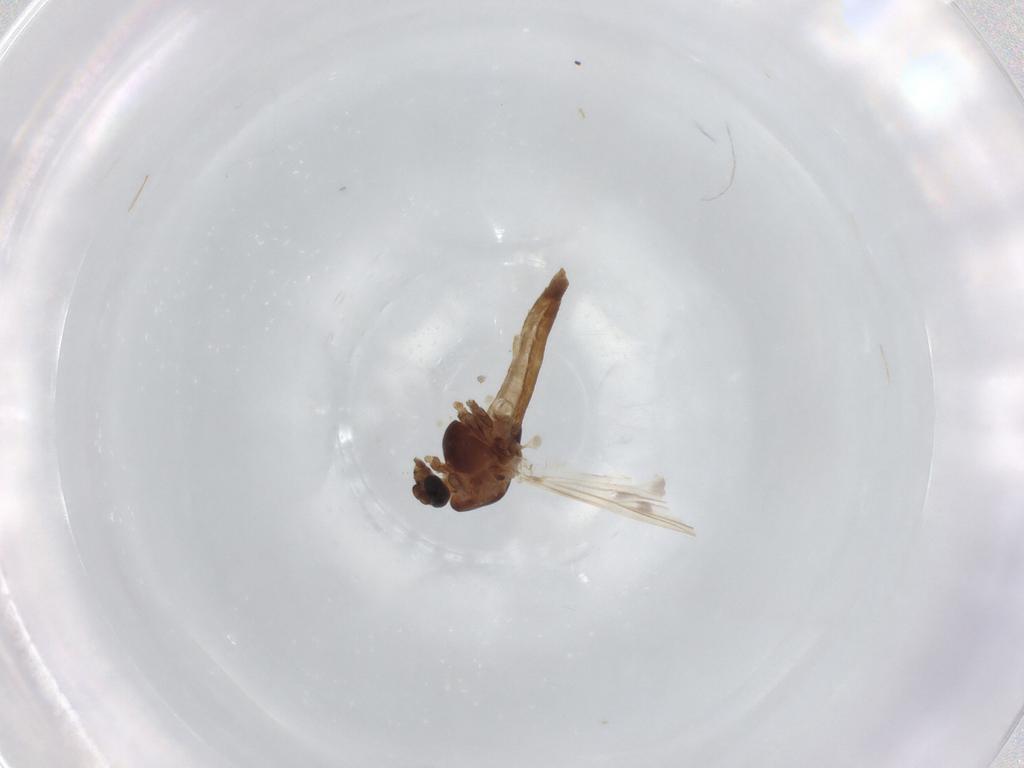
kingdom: Animalia
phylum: Arthropoda
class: Insecta
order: Diptera
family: Chironomidae
